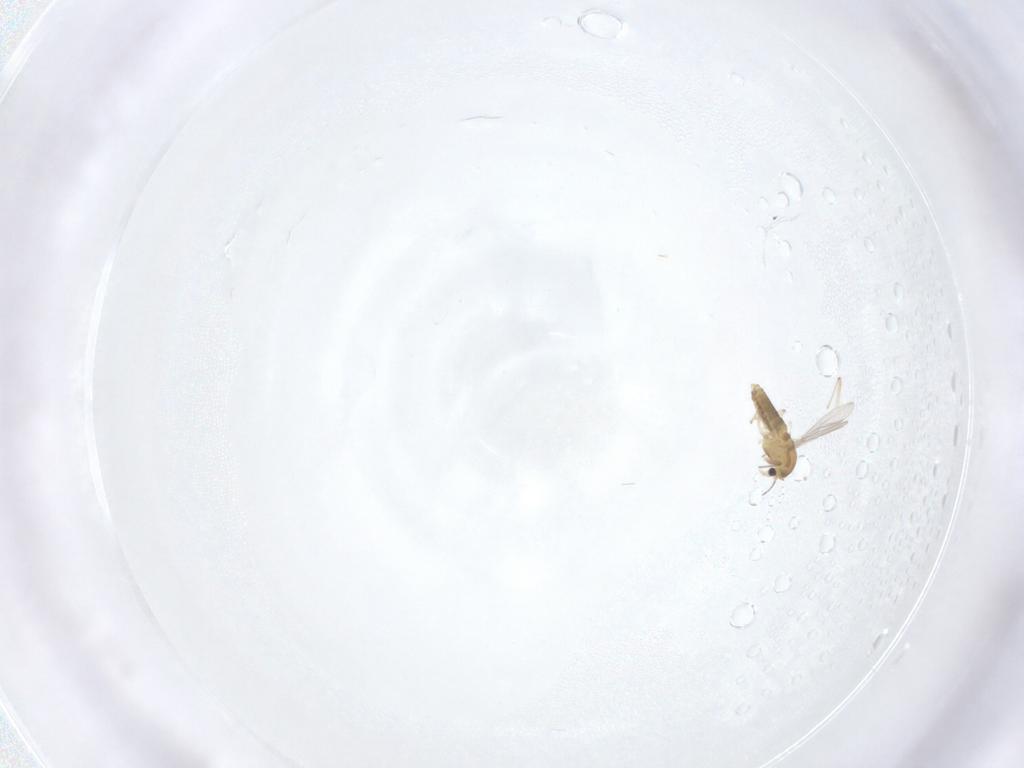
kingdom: Animalia
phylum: Arthropoda
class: Insecta
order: Diptera
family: Chironomidae
